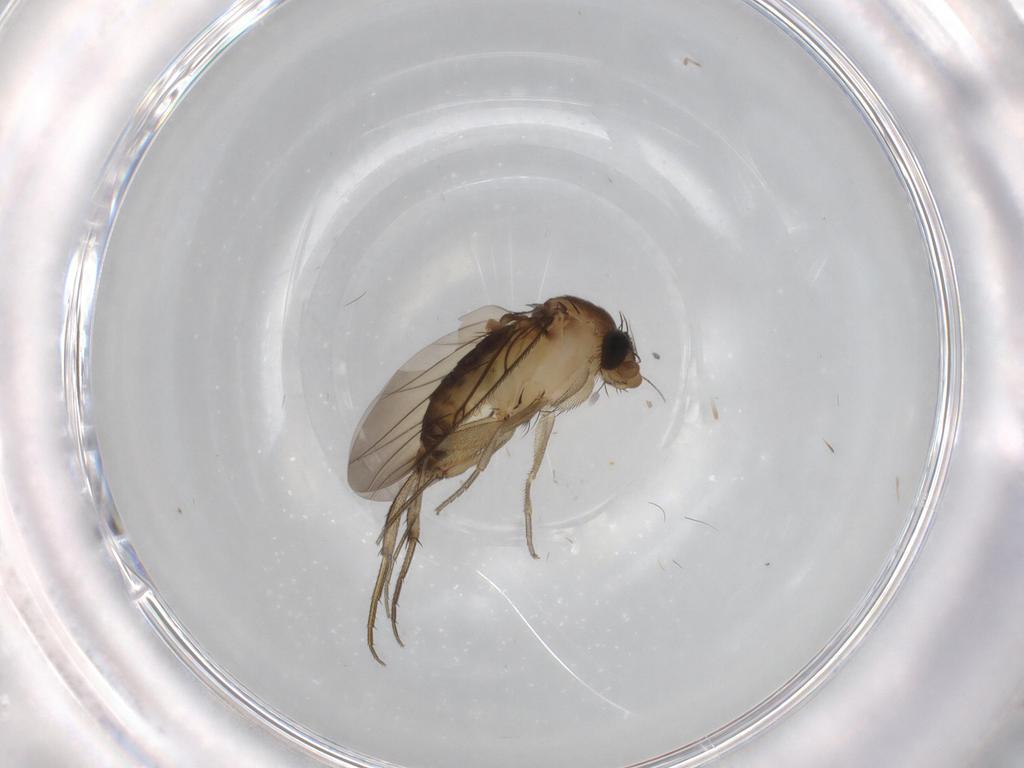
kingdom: Animalia
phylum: Arthropoda
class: Insecta
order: Diptera
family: Phoridae
